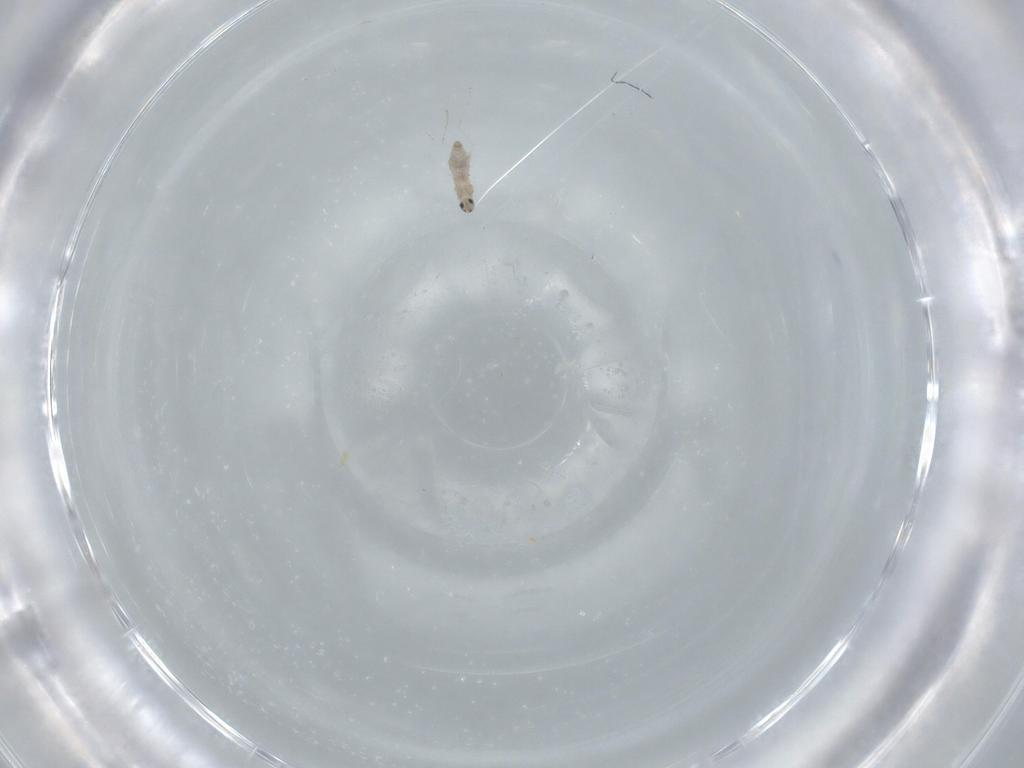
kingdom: Animalia
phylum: Arthropoda
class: Insecta
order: Diptera
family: Cecidomyiidae
